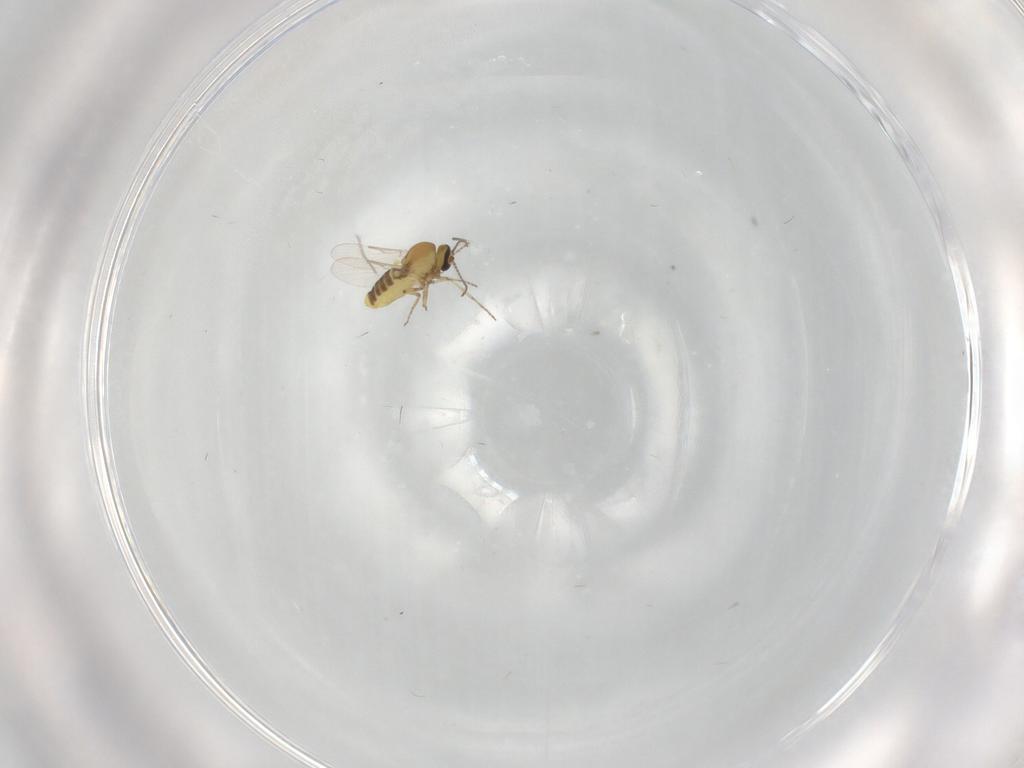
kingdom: Animalia
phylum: Arthropoda
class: Insecta
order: Diptera
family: Ceratopogonidae
